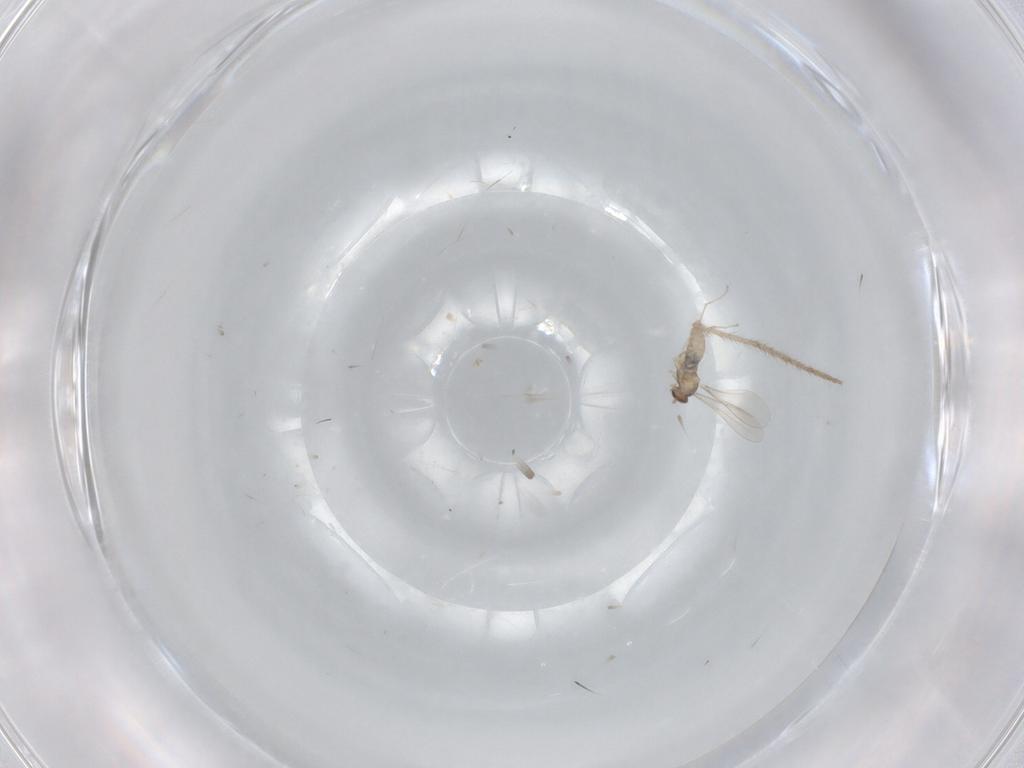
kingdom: Animalia
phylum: Arthropoda
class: Insecta
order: Diptera
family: Cecidomyiidae
